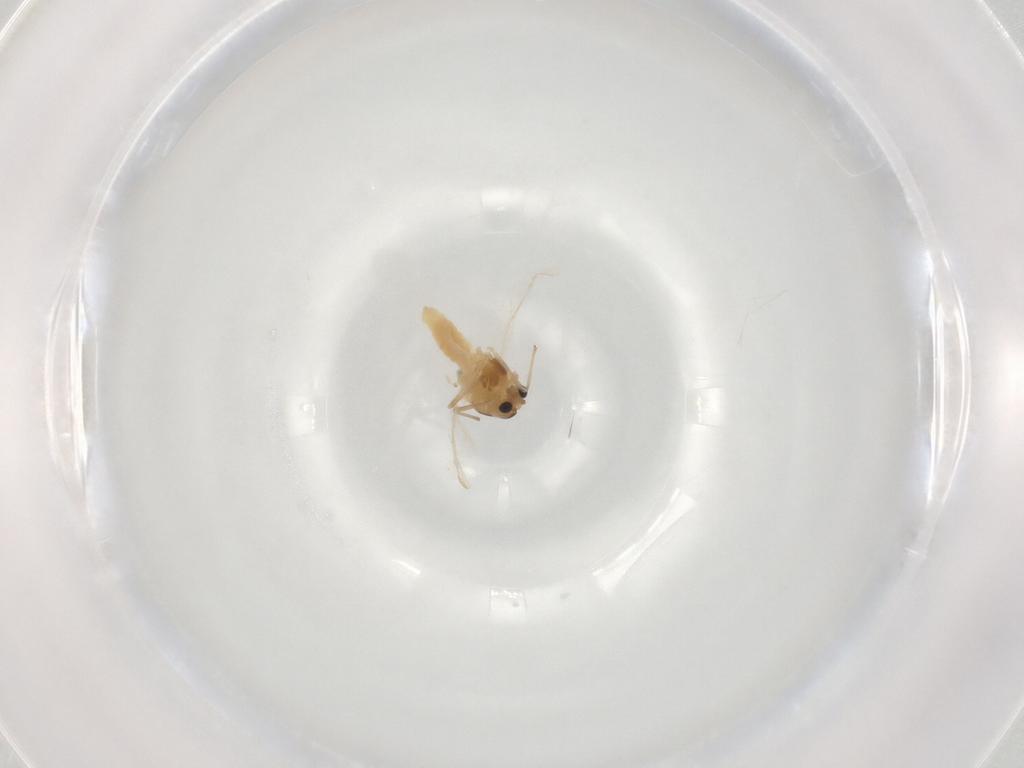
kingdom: Animalia
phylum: Arthropoda
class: Insecta
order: Diptera
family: Chironomidae
